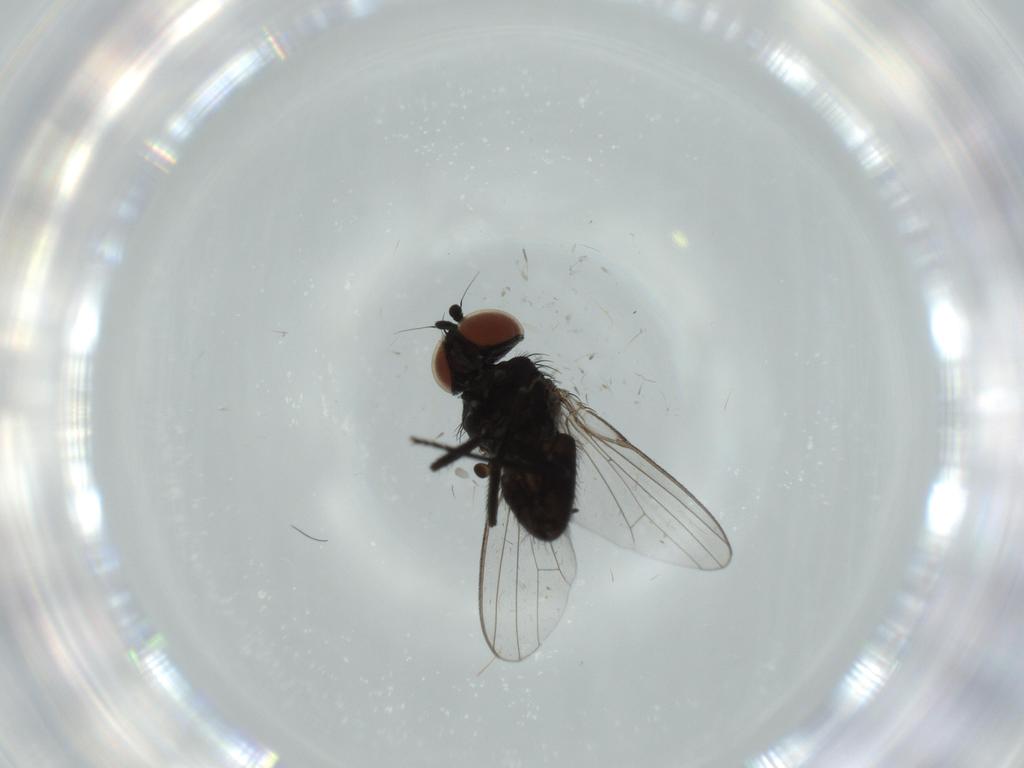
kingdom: Animalia
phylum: Arthropoda
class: Insecta
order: Diptera
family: Milichiidae
